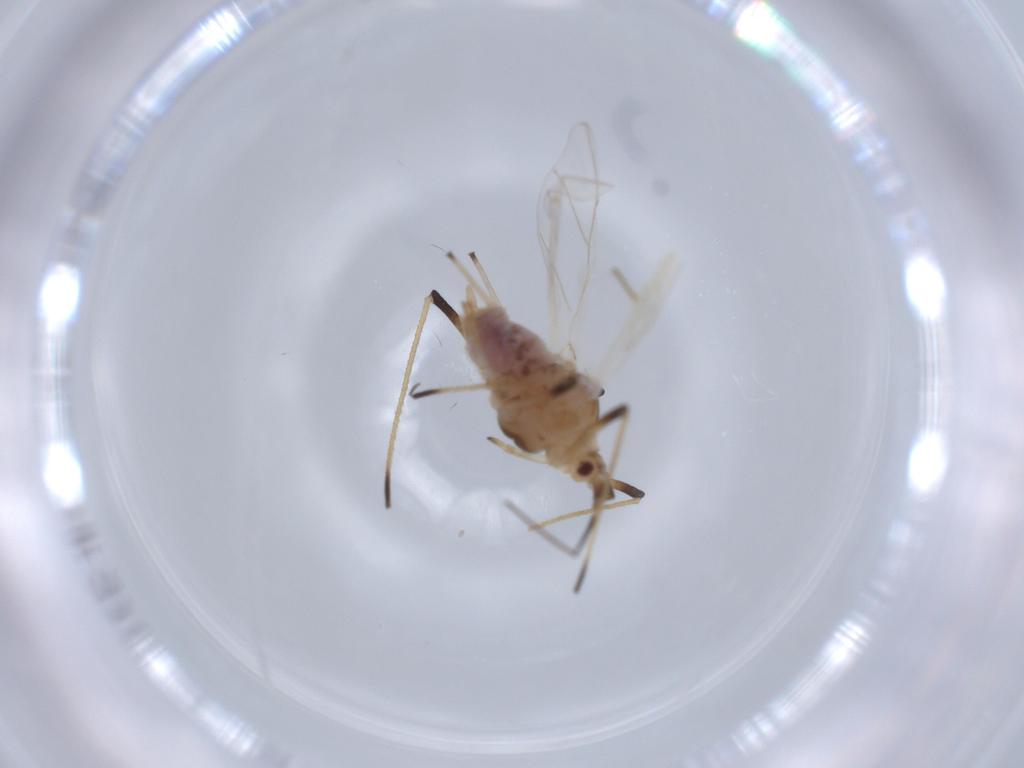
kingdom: Animalia
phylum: Arthropoda
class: Insecta
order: Hemiptera
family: Aphididae
